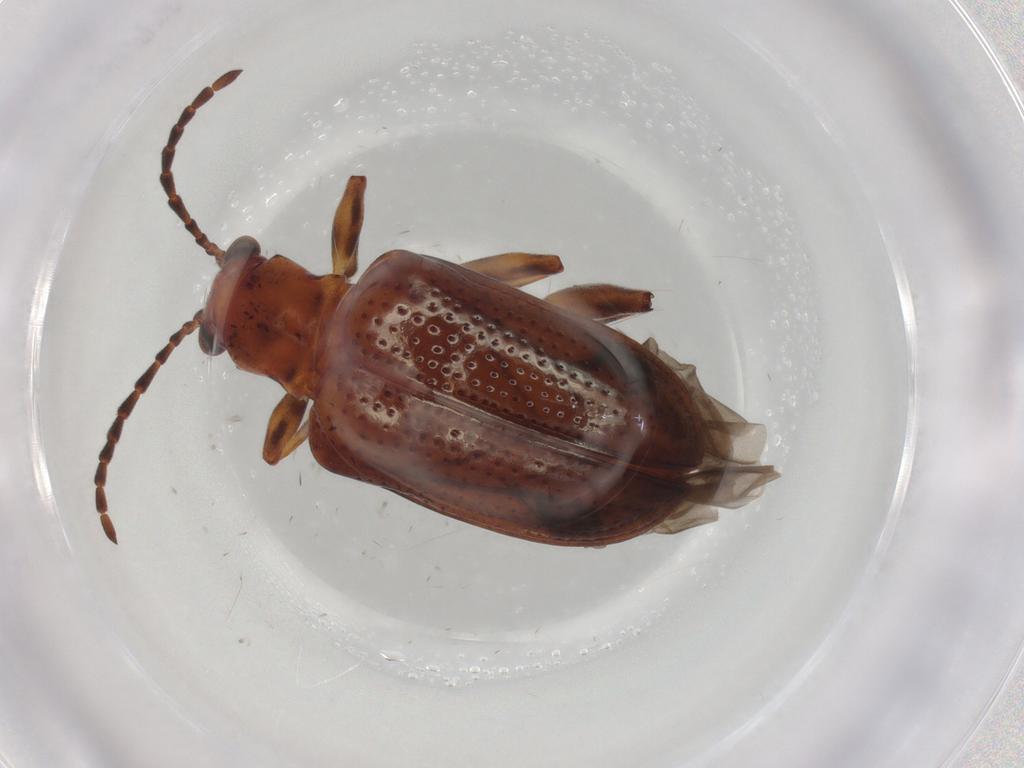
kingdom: Animalia
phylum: Arthropoda
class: Insecta
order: Coleoptera
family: Chrysomelidae
